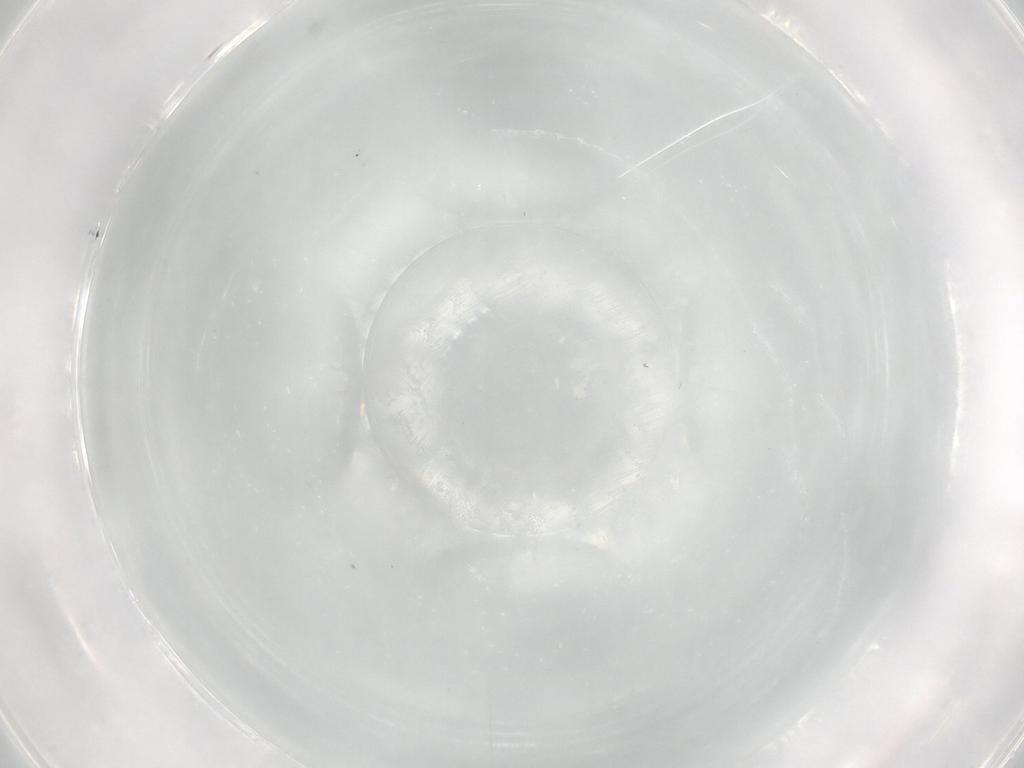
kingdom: Animalia
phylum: Arthropoda
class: Insecta
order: Diptera
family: Cecidomyiidae
